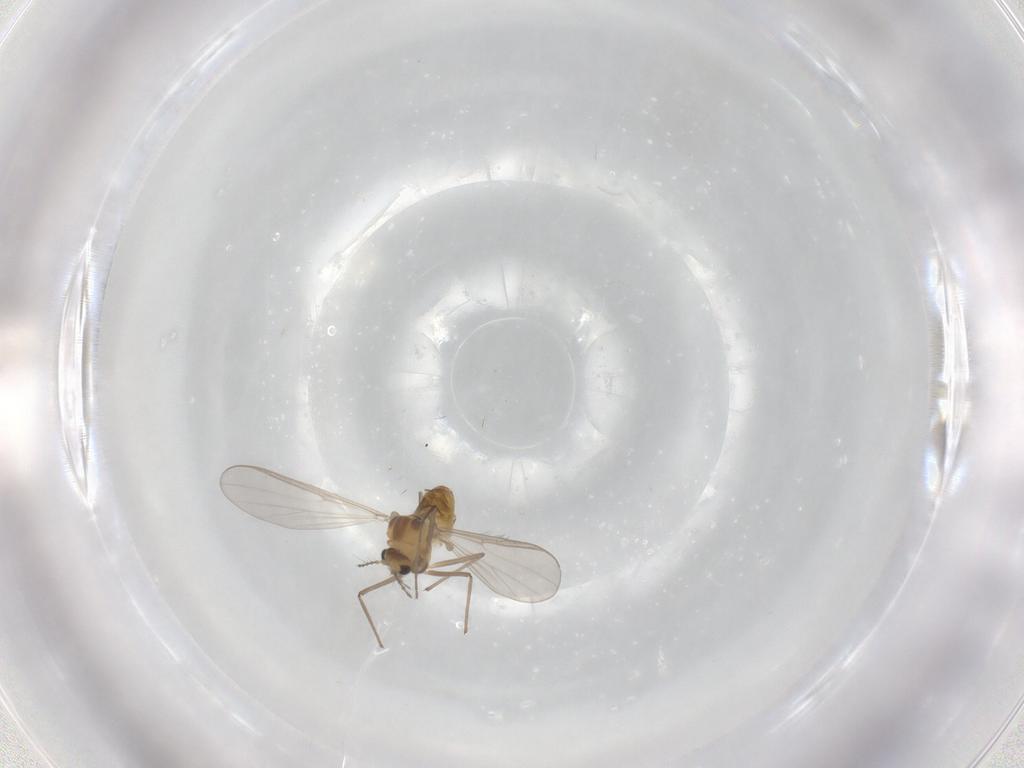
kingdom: Animalia
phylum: Arthropoda
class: Insecta
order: Diptera
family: Chironomidae
